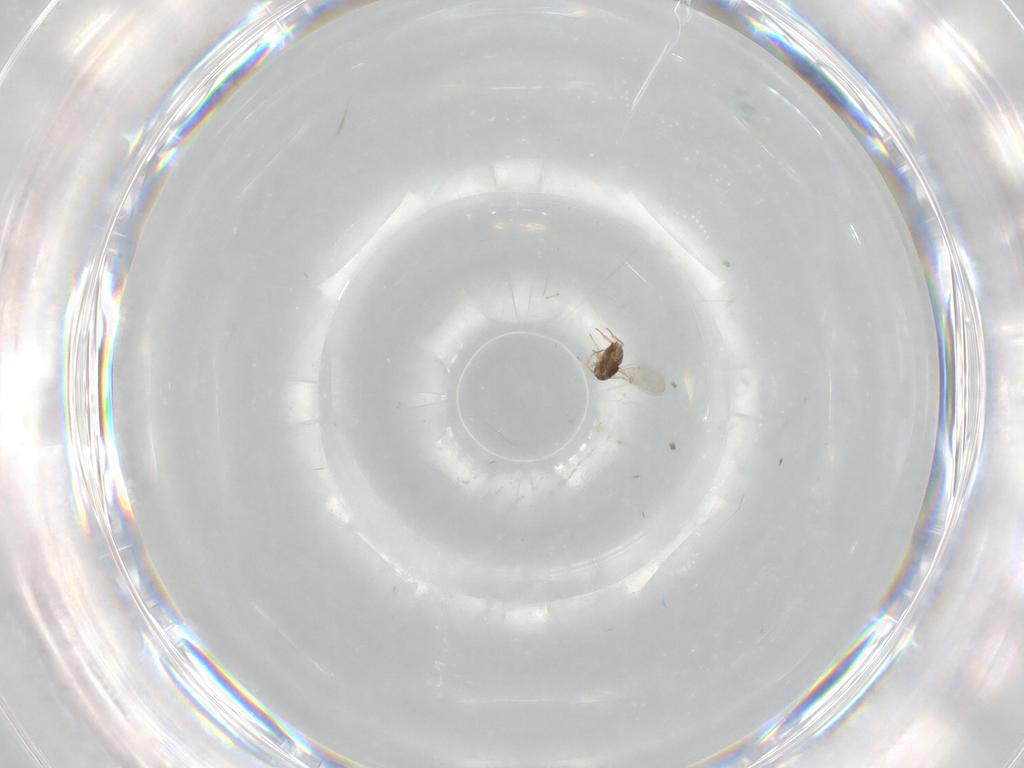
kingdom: Animalia
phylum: Arthropoda
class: Insecta
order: Hymenoptera
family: Encyrtidae
